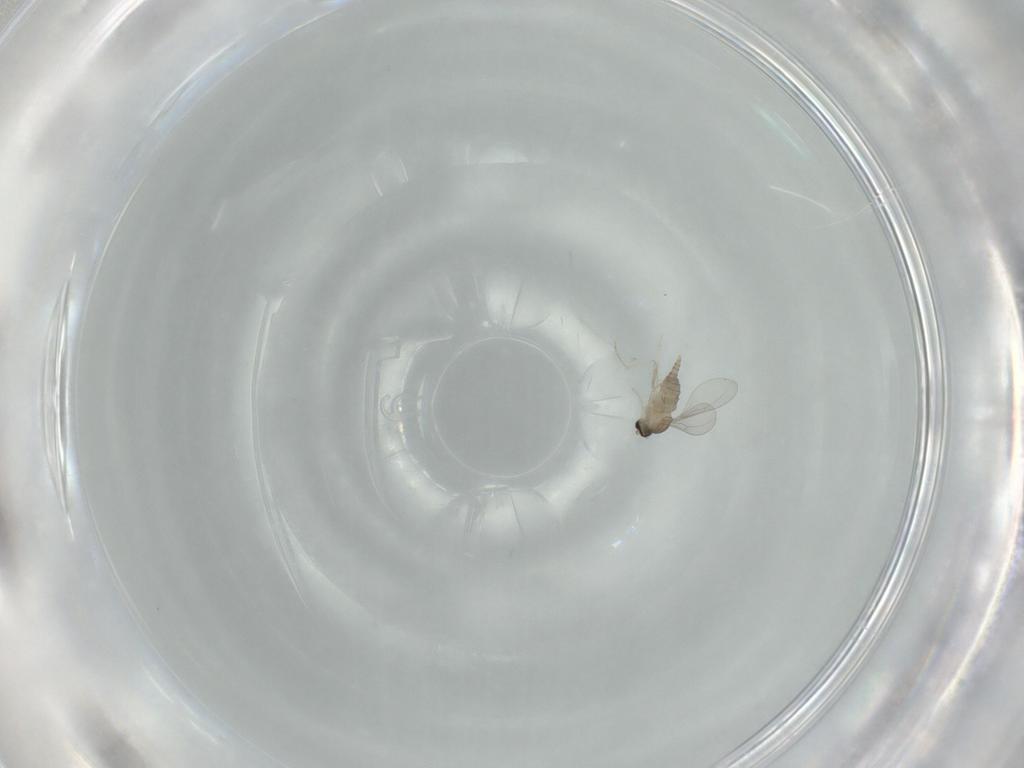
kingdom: Animalia
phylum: Arthropoda
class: Insecta
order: Diptera
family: Cecidomyiidae
